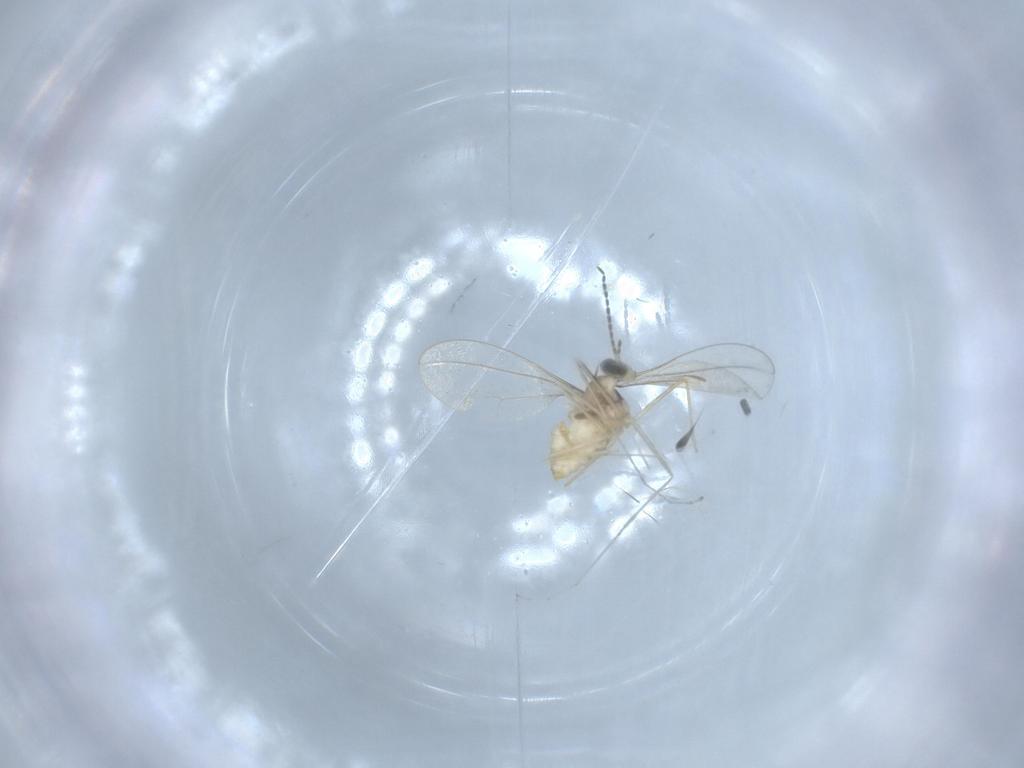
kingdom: Animalia
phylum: Arthropoda
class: Insecta
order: Diptera
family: Cecidomyiidae
